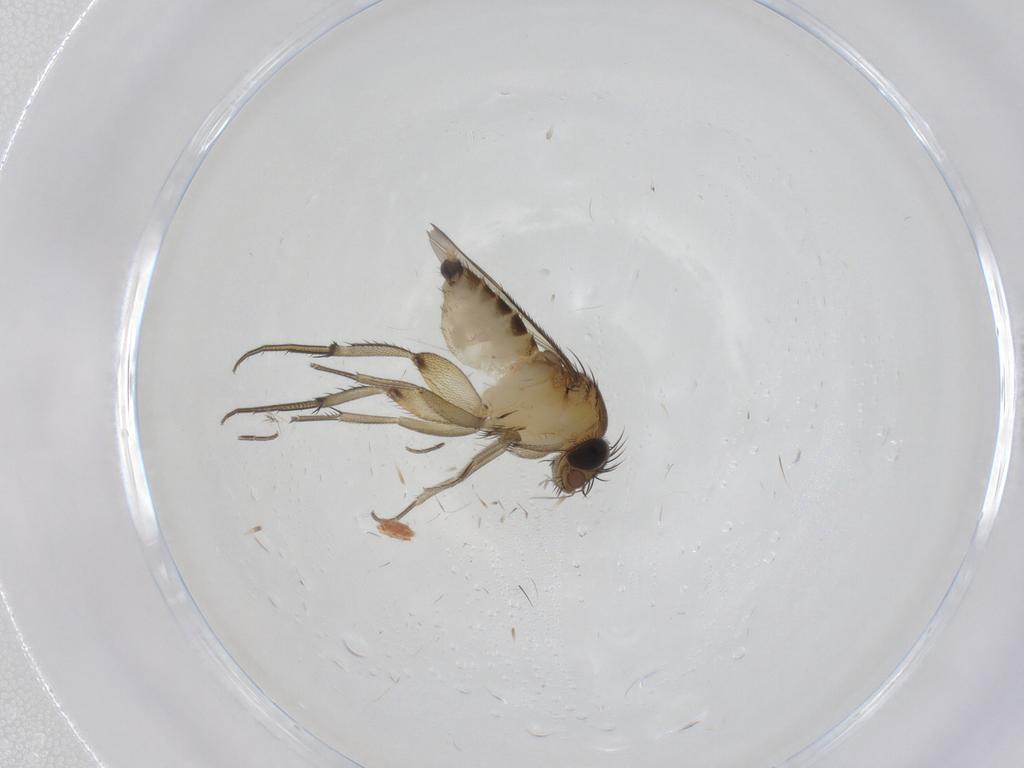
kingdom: Animalia
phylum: Arthropoda
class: Insecta
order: Diptera
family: Phoridae
